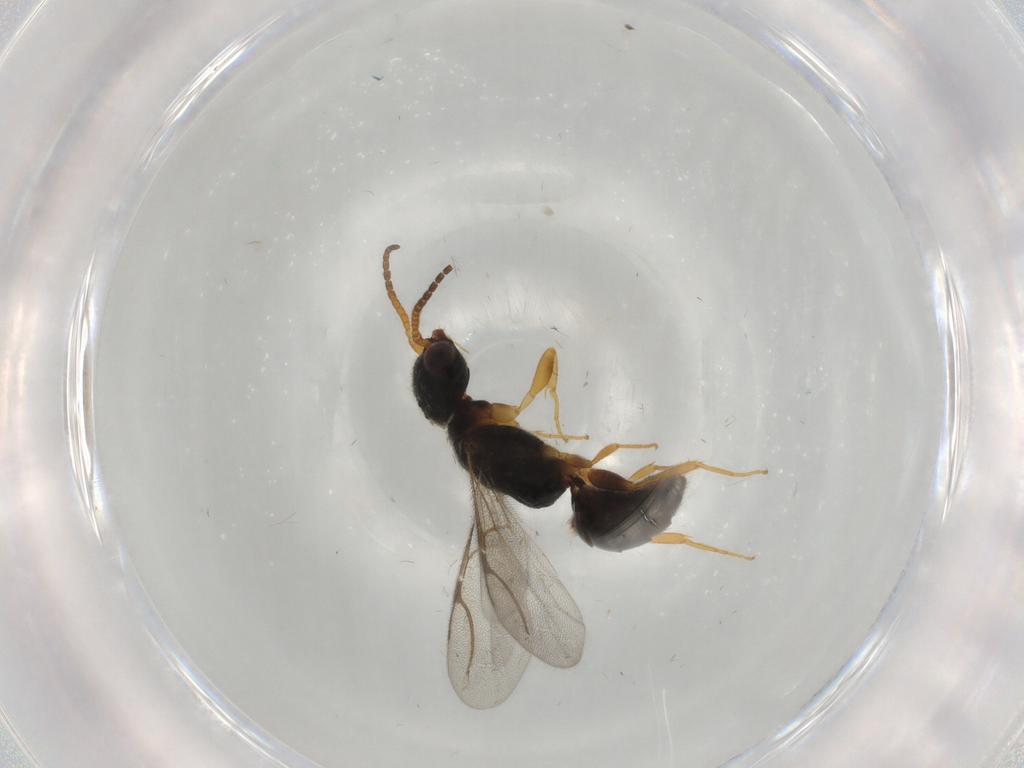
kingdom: Animalia
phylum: Arthropoda
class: Insecta
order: Hymenoptera
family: Bethylidae
